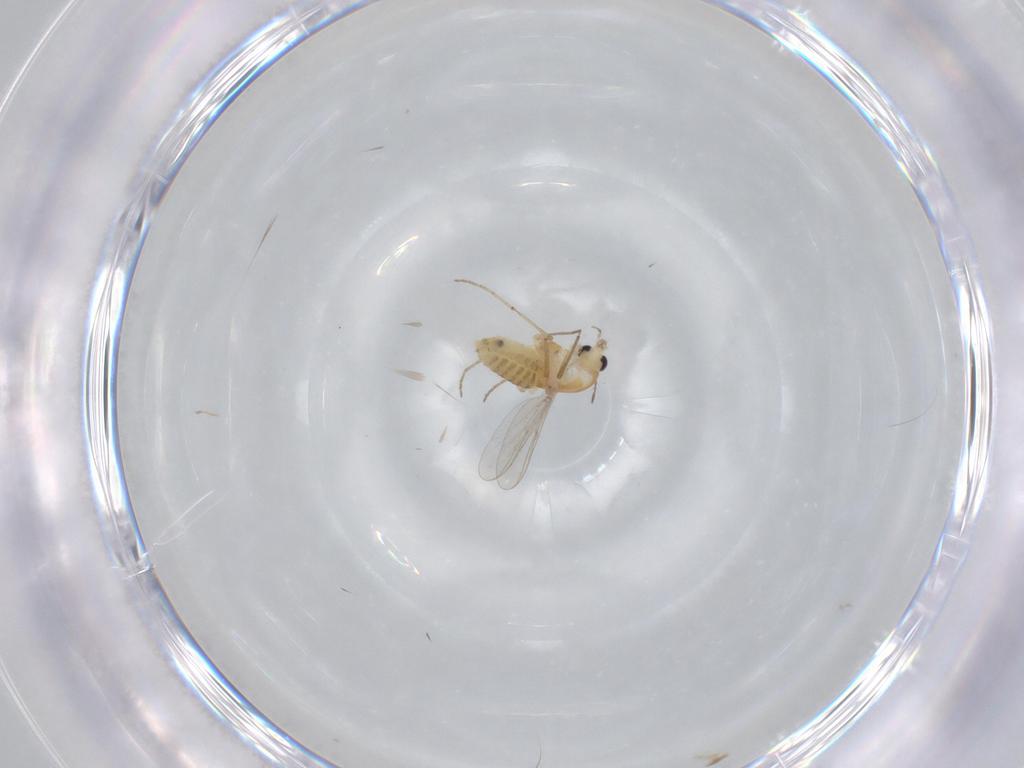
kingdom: Animalia
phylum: Arthropoda
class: Insecta
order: Diptera
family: Chironomidae
